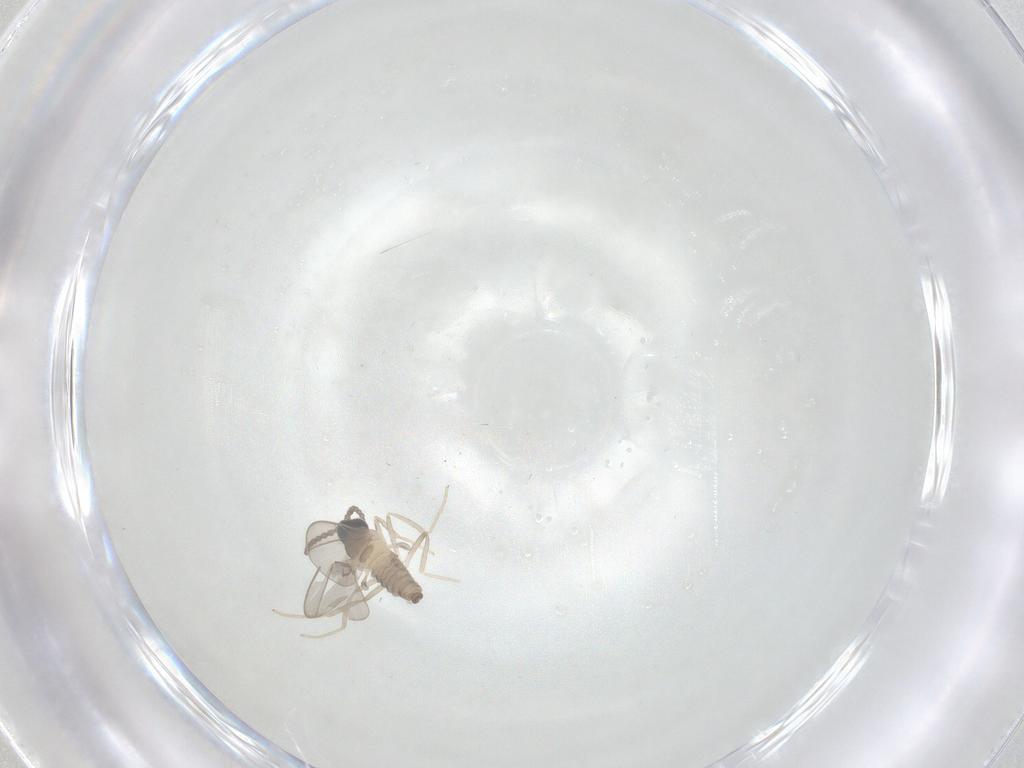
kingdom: Animalia
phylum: Arthropoda
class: Insecta
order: Diptera
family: Cecidomyiidae
